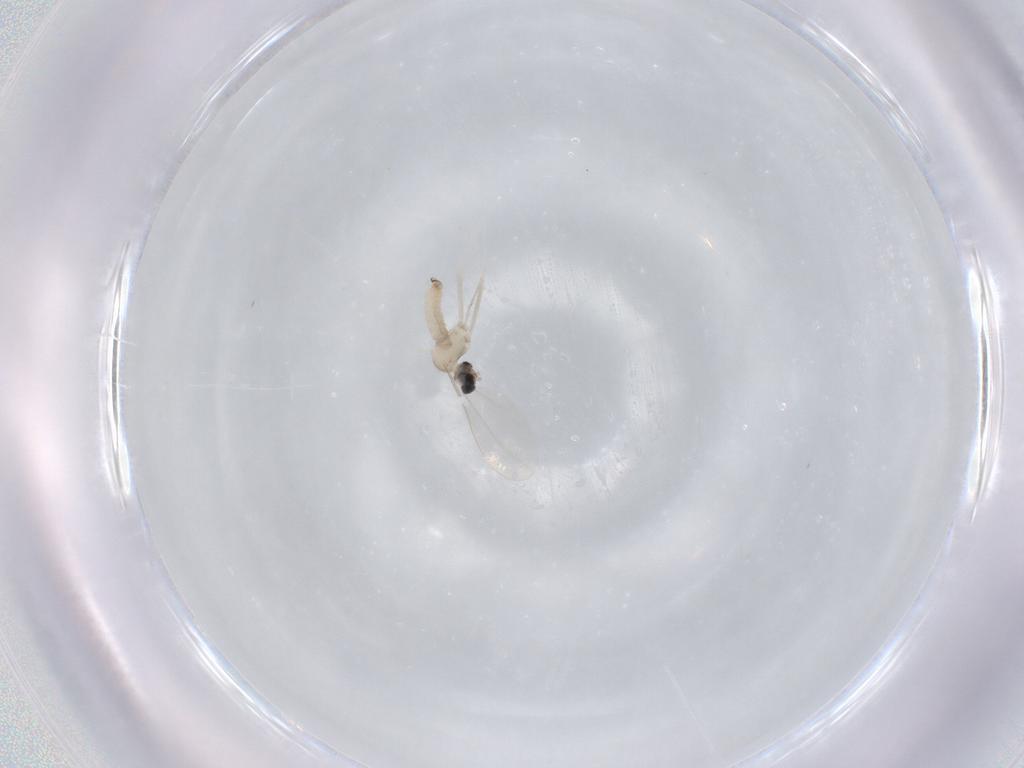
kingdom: Animalia
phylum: Arthropoda
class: Insecta
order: Diptera
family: Cecidomyiidae
